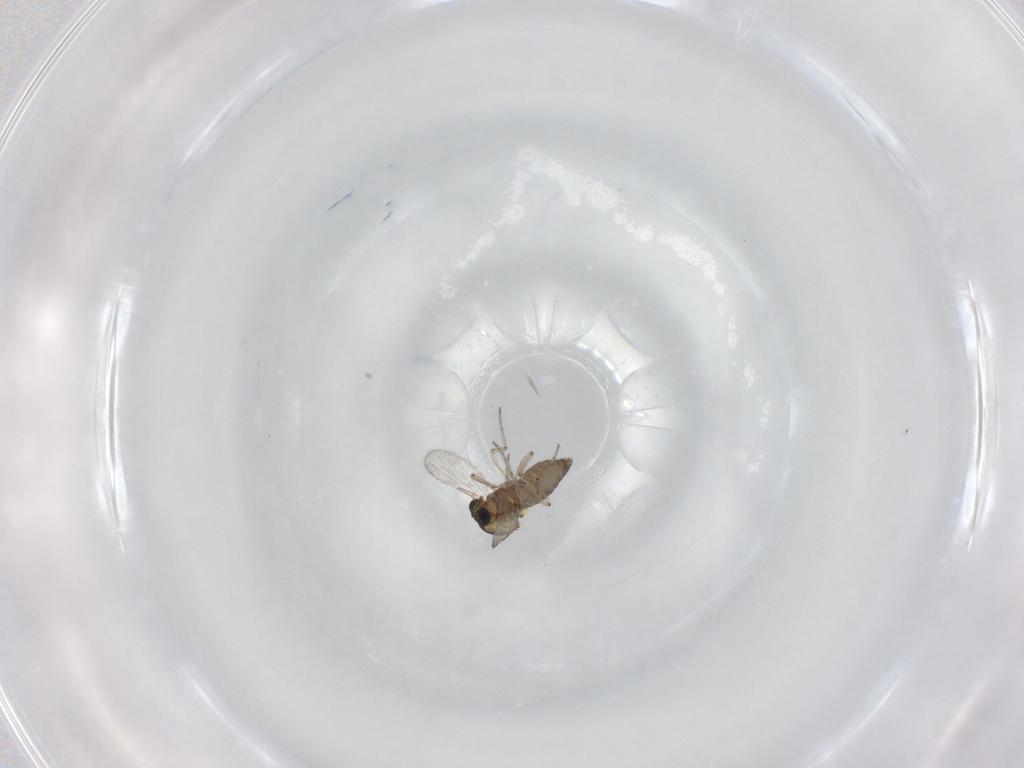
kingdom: Animalia
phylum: Arthropoda
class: Insecta
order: Diptera
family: Ceratopogonidae
